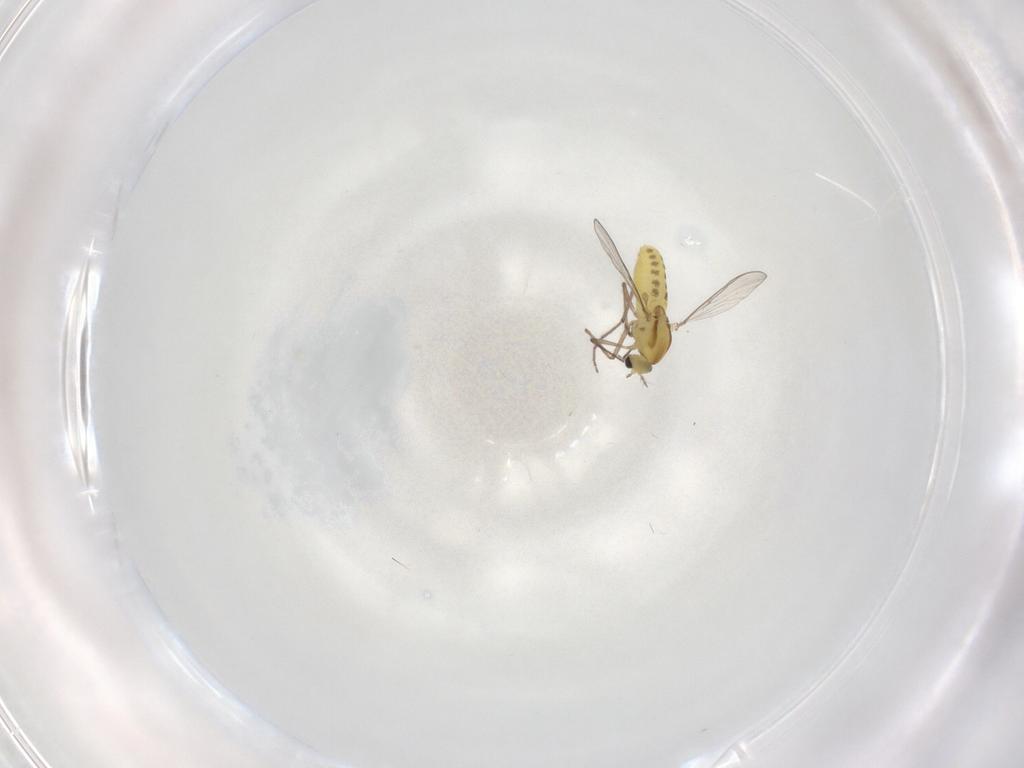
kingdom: Animalia
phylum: Arthropoda
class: Insecta
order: Diptera
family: Chironomidae
